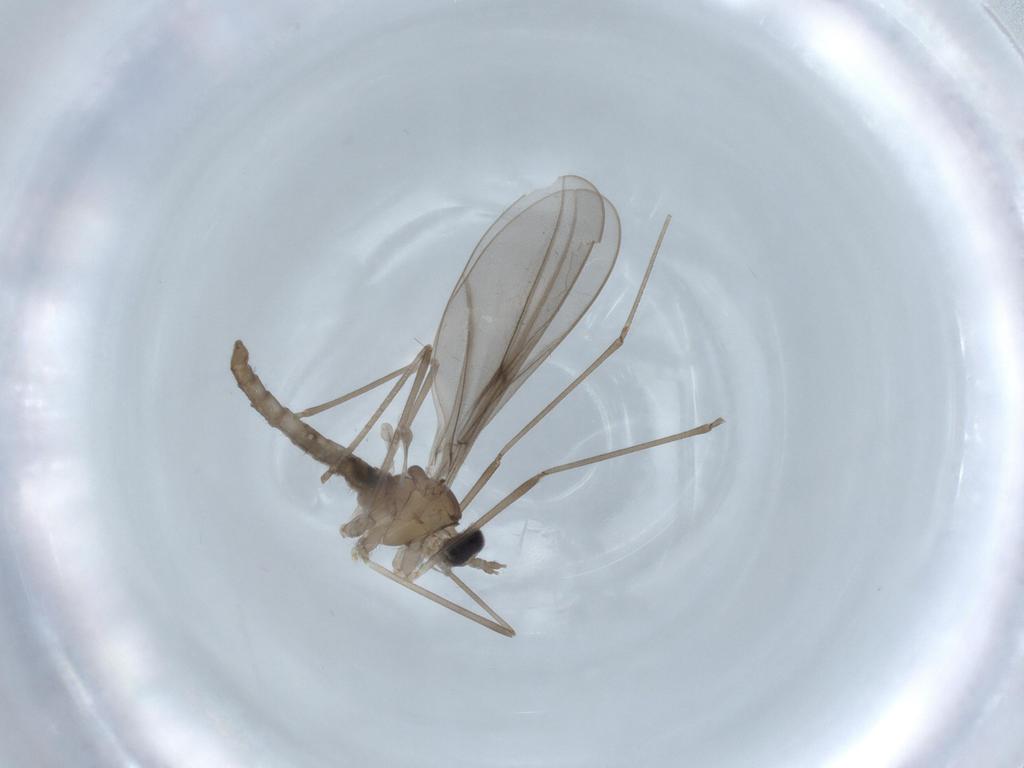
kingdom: Animalia
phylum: Arthropoda
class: Insecta
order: Diptera
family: Cecidomyiidae
